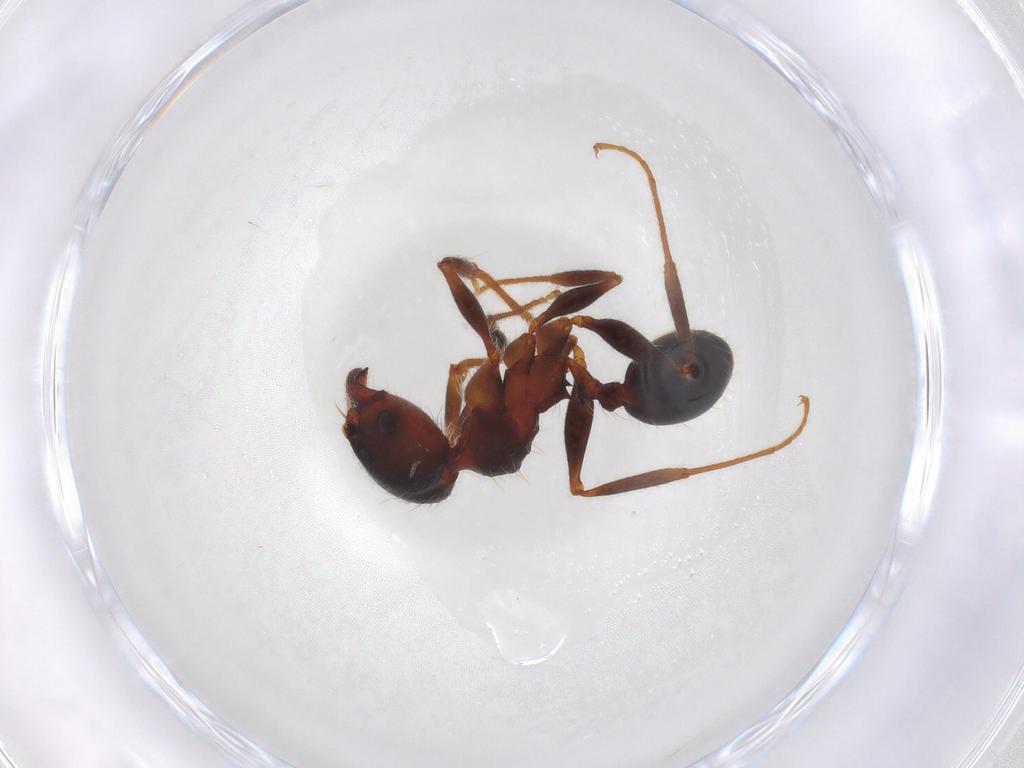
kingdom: Animalia
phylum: Arthropoda
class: Insecta
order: Hymenoptera
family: Formicidae
